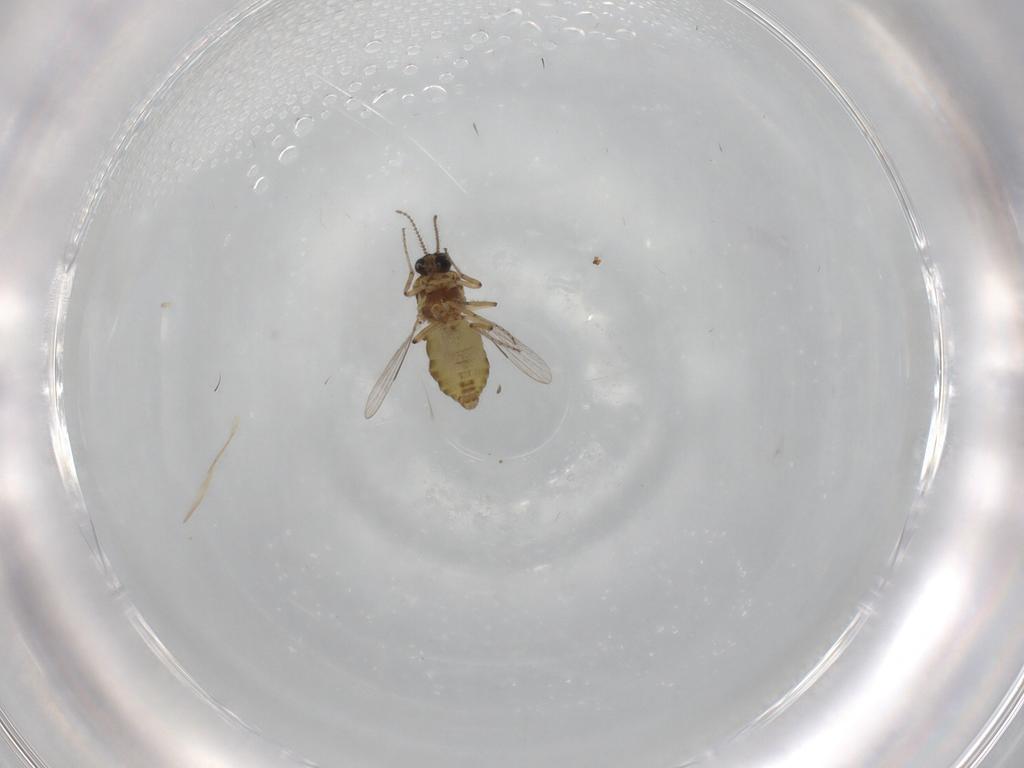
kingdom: Animalia
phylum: Arthropoda
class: Insecta
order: Diptera
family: Ceratopogonidae
